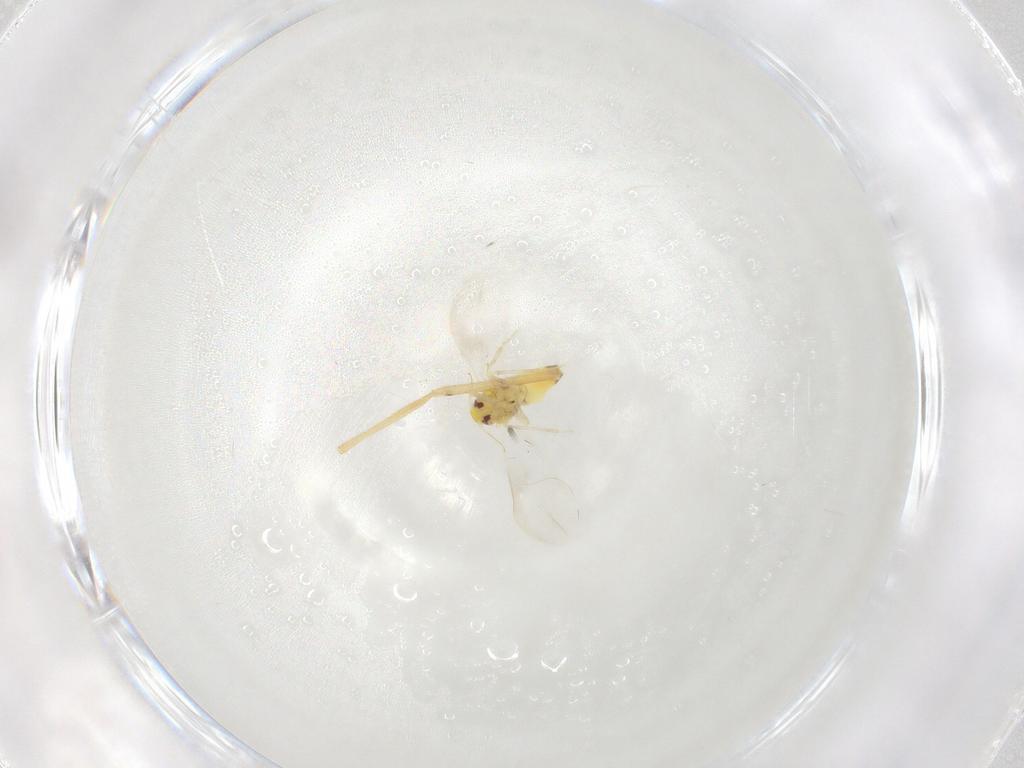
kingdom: Animalia
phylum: Arthropoda
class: Insecta
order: Hemiptera
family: Aleyrodidae
